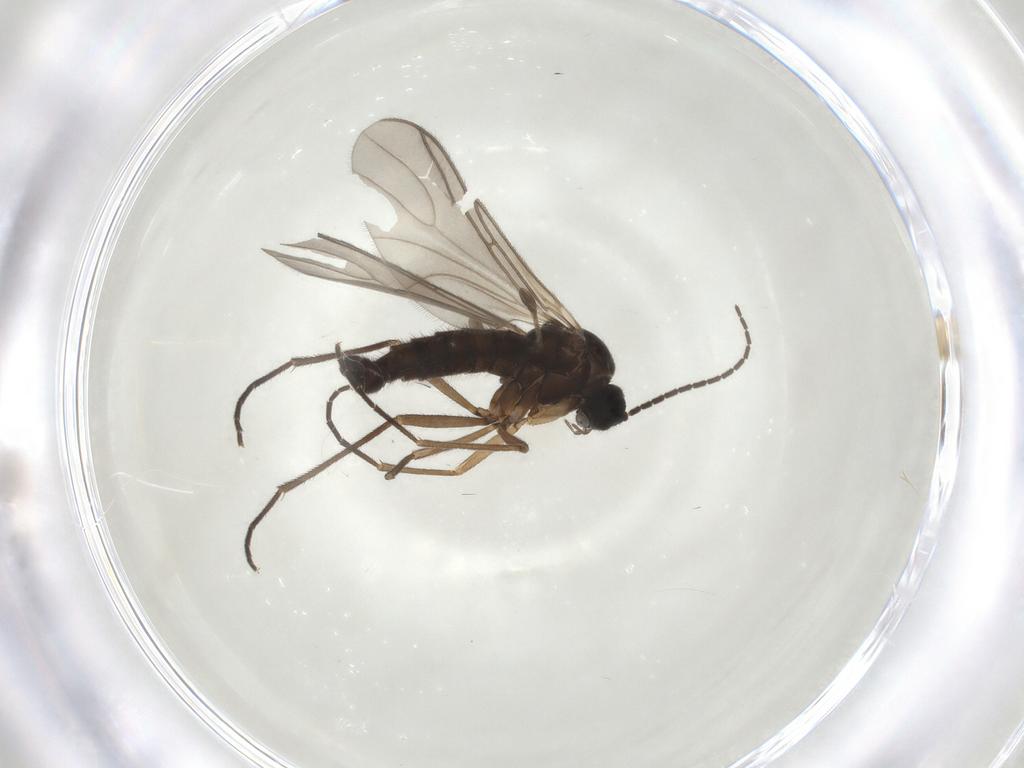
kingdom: Animalia
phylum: Arthropoda
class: Insecta
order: Diptera
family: Sciaridae
